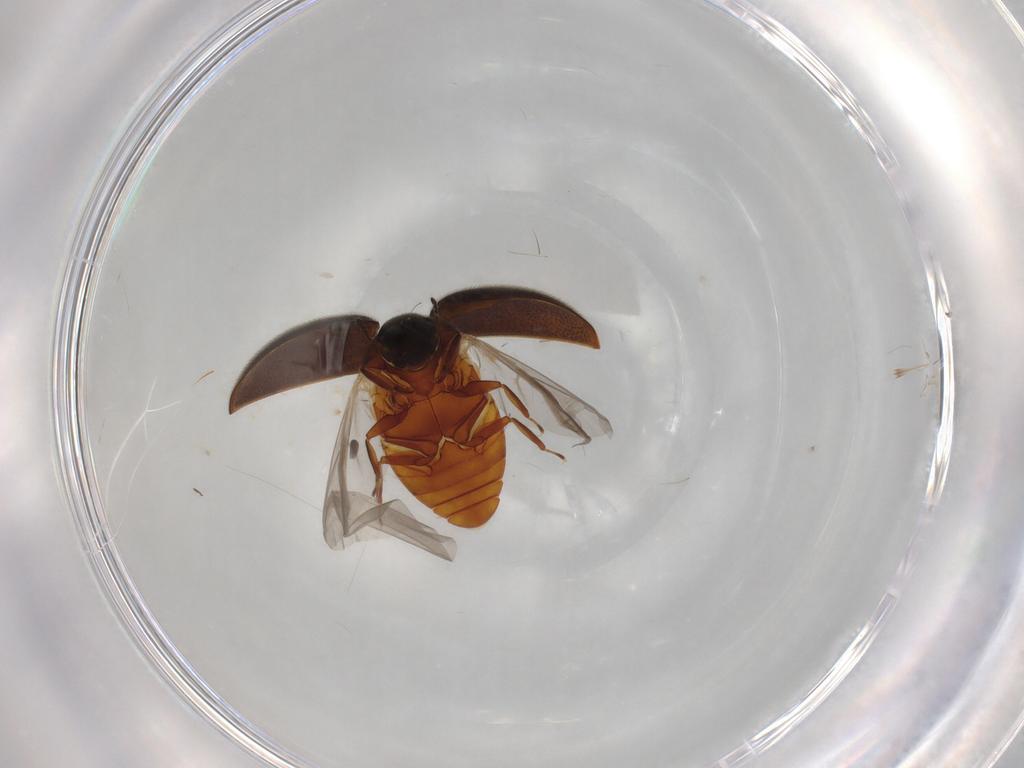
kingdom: Animalia
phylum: Arthropoda
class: Insecta
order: Coleoptera
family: Limnichidae
